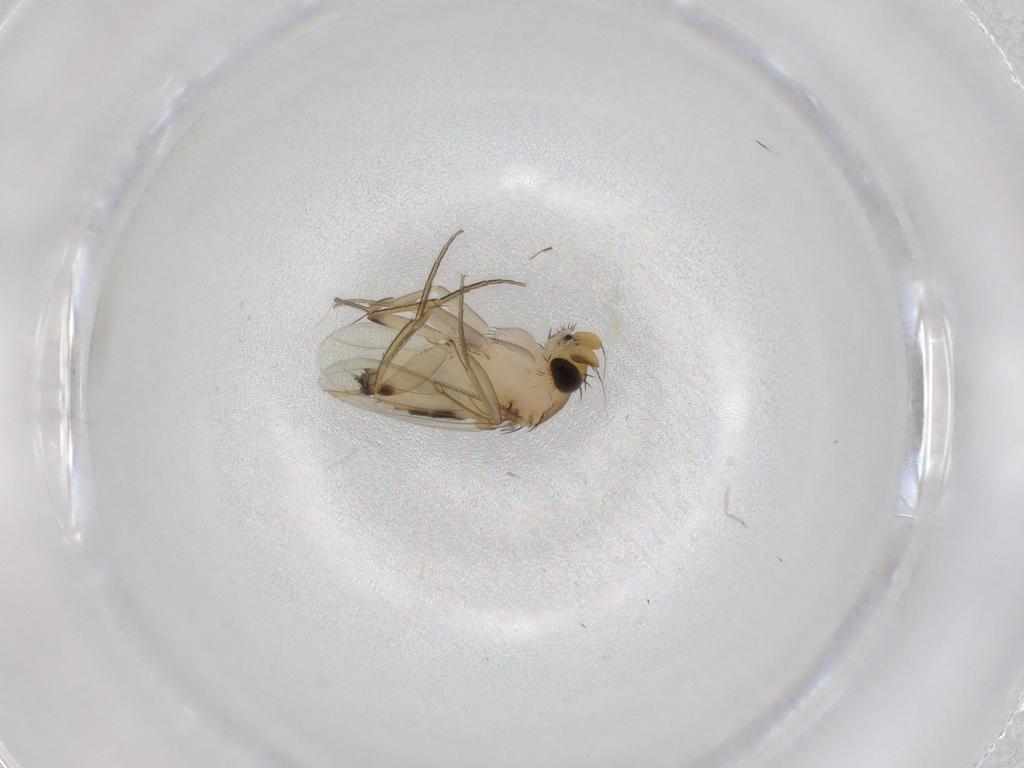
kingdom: Animalia
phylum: Arthropoda
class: Insecta
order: Diptera
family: Phoridae
